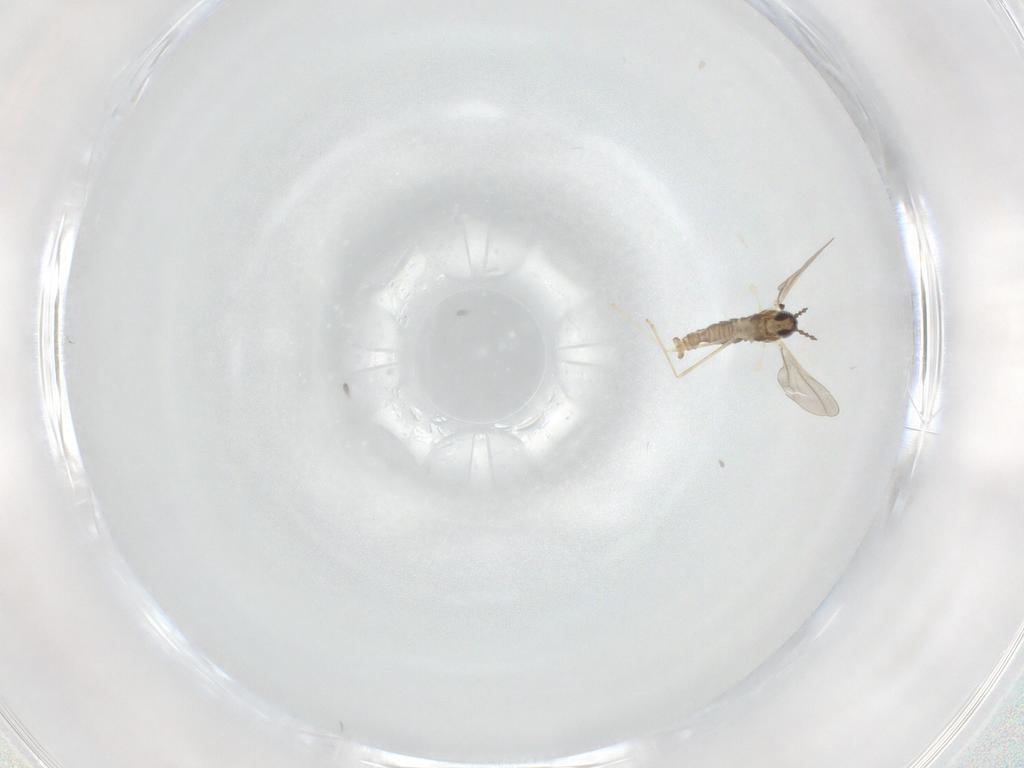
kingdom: Animalia
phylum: Arthropoda
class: Insecta
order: Diptera
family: Cecidomyiidae
